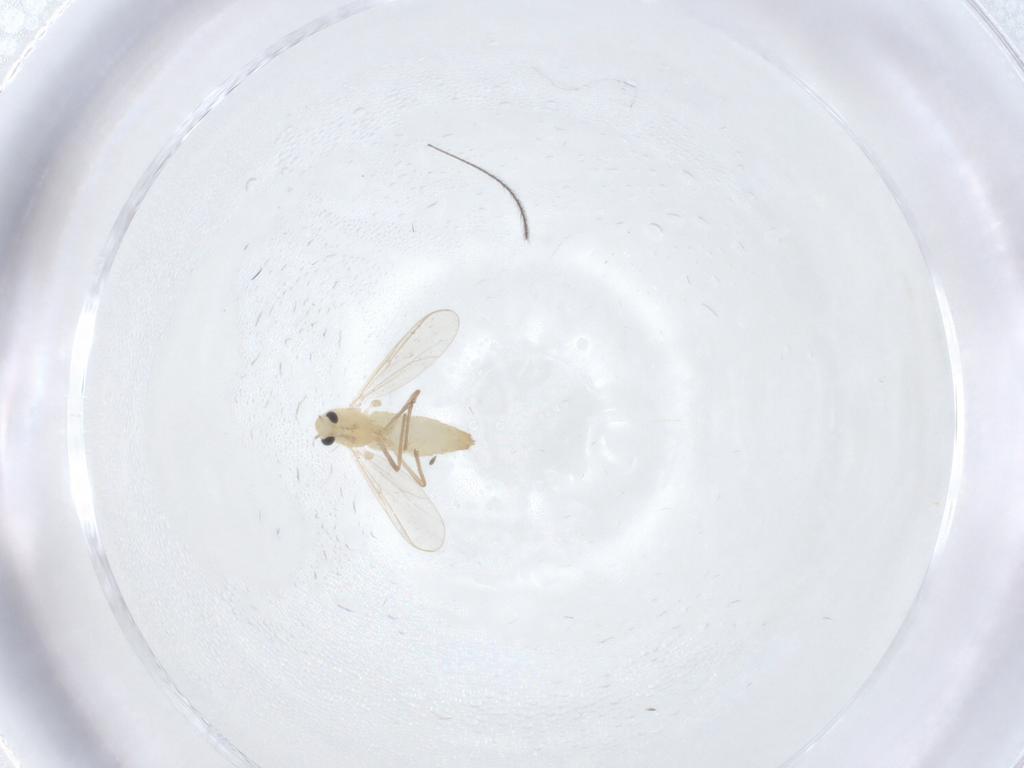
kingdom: Animalia
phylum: Arthropoda
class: Insecta
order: Diptera
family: Chironomidae
